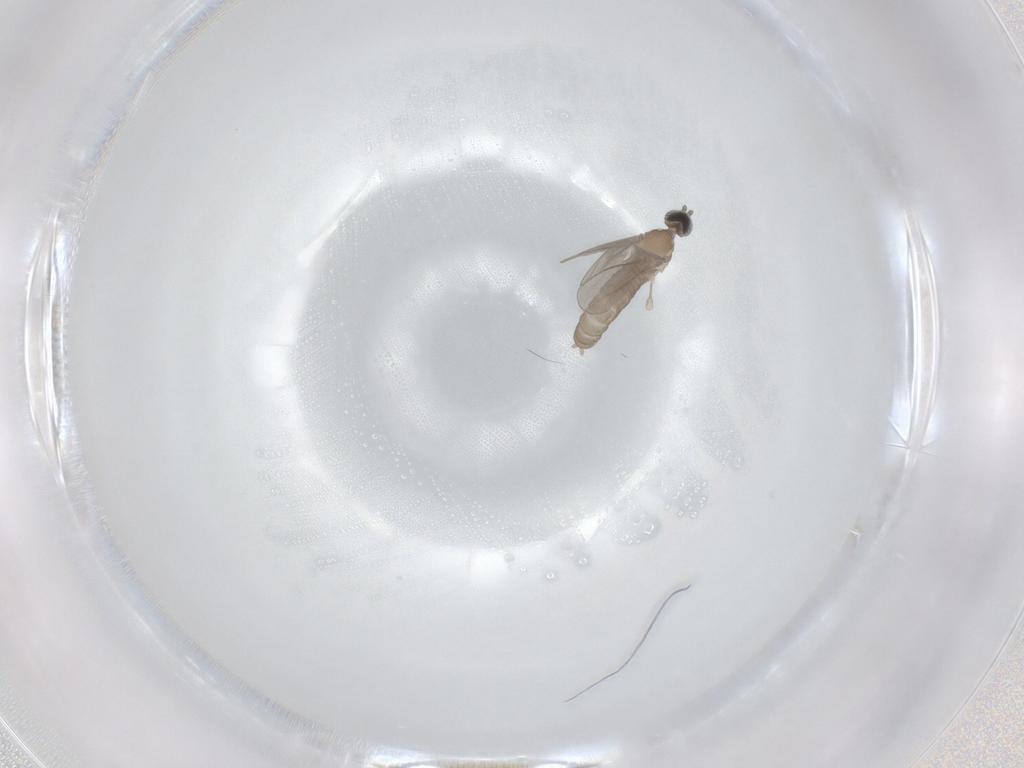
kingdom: Animalia
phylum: Arthropoda
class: Insecta
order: Diptera
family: Cecidomyiidae
